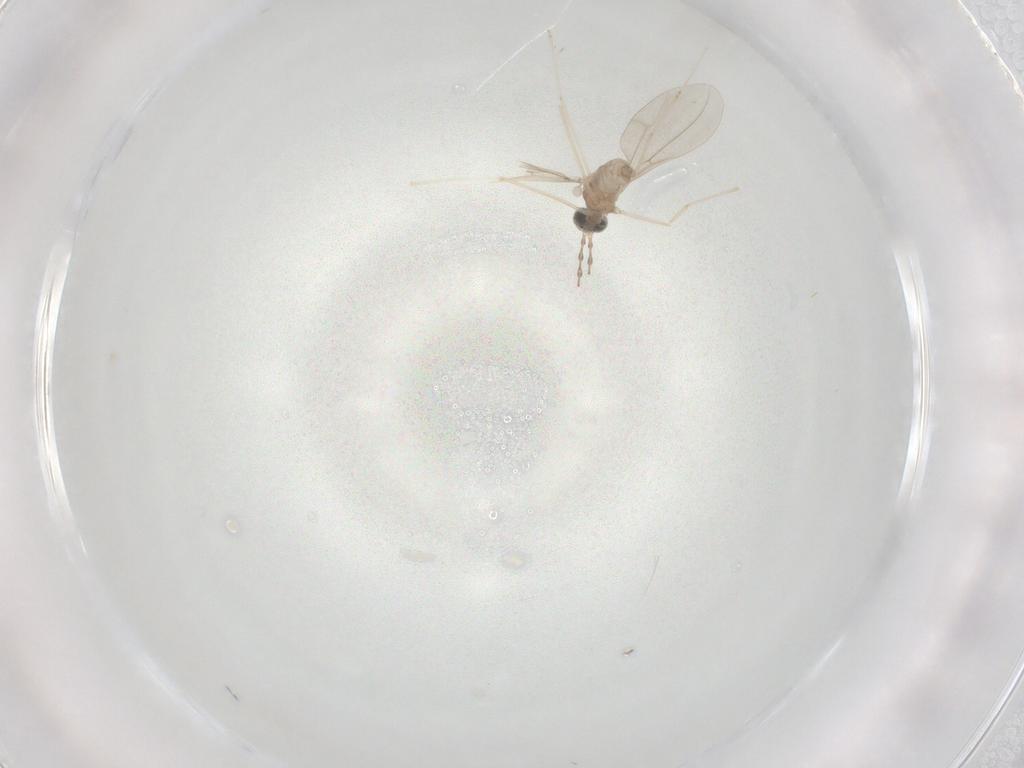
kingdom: Animalia
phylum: Arthropoda
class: Insecta
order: Diptera
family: Cecidomyiidae
